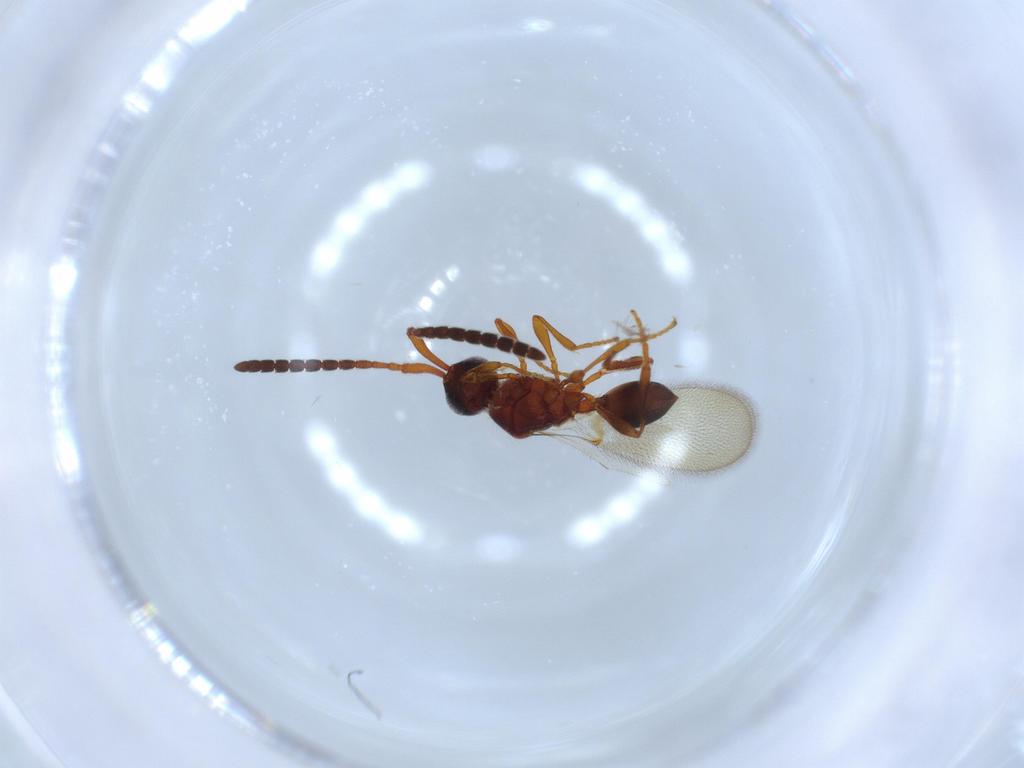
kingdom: Animalia
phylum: Arthropoda
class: Insecta
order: Hymenoptera
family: Diapriidae
